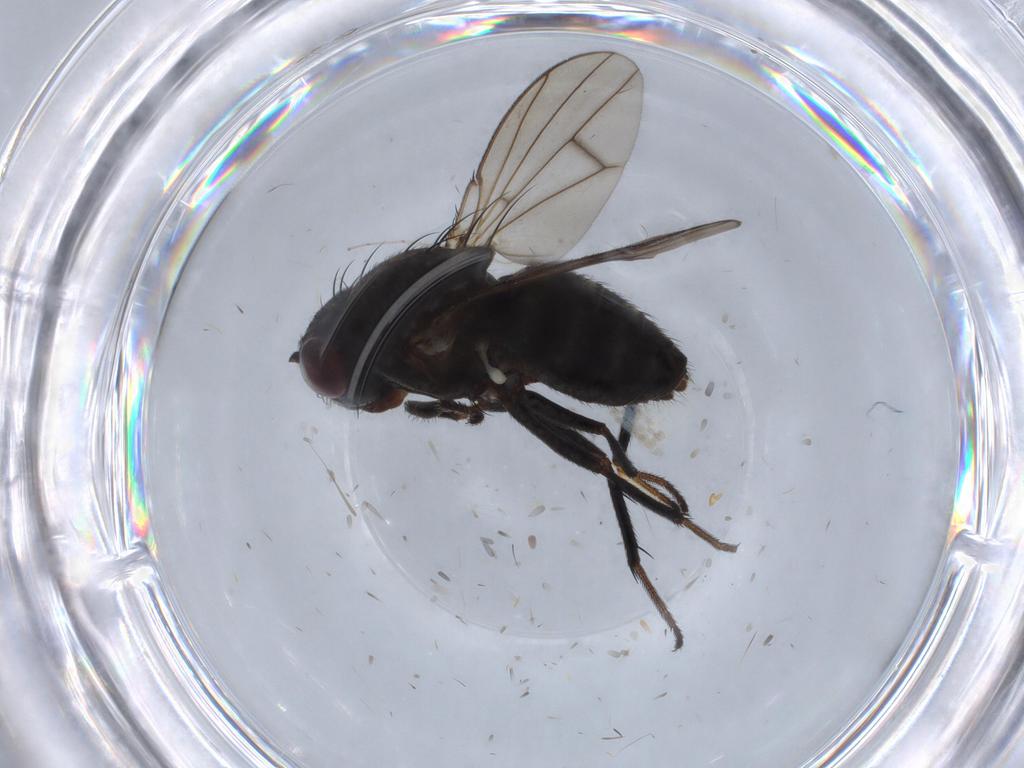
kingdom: Animalia
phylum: Arthropoda
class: Insecta
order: Diptera
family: Ephydridae
